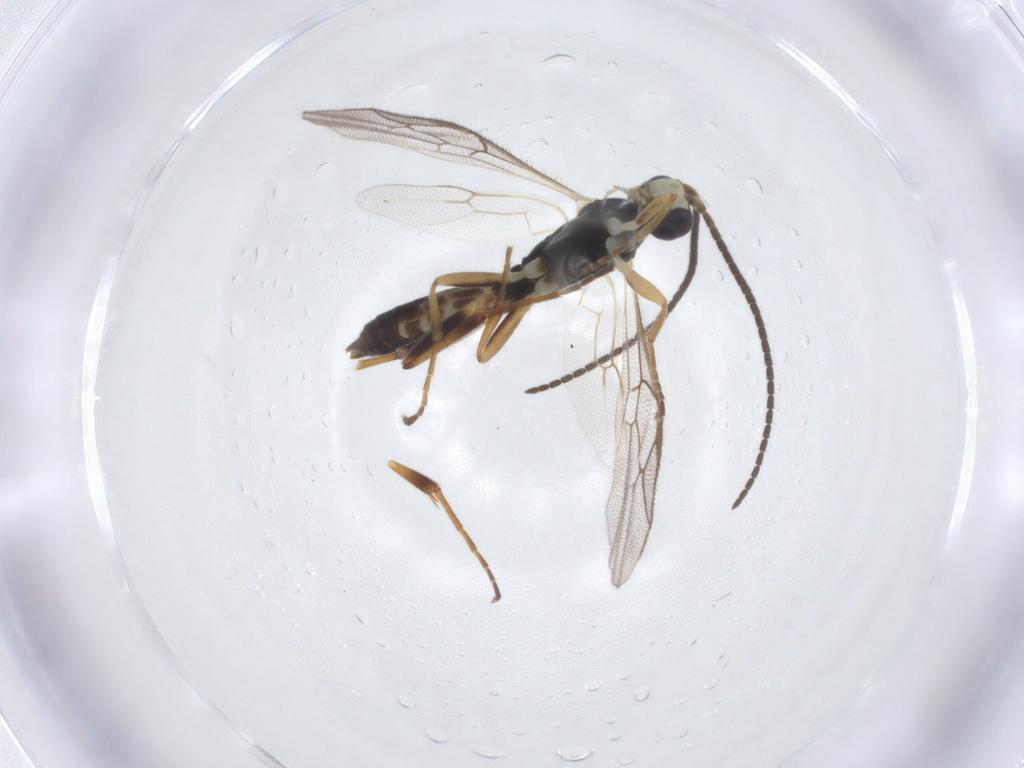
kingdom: Animalia
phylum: Arthropoda
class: Insecta
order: Hymenoptera
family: Ichneumonidae
